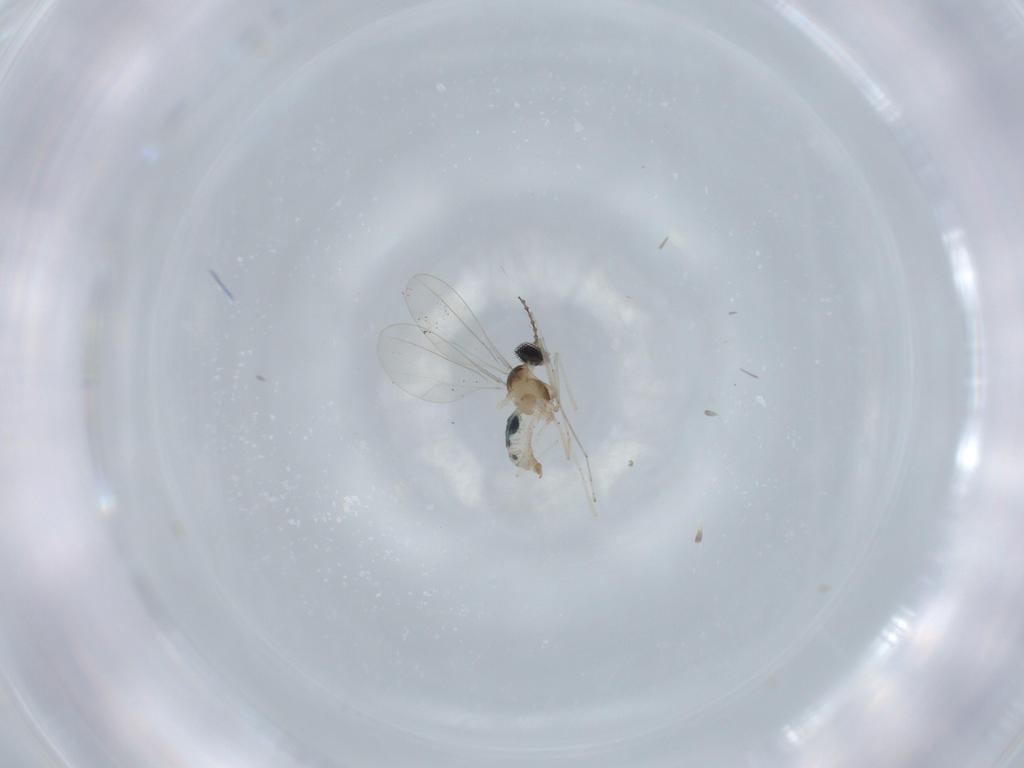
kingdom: Animalia
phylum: Arthropoda
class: Insecta
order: Diptera
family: Cecidomyiidae
